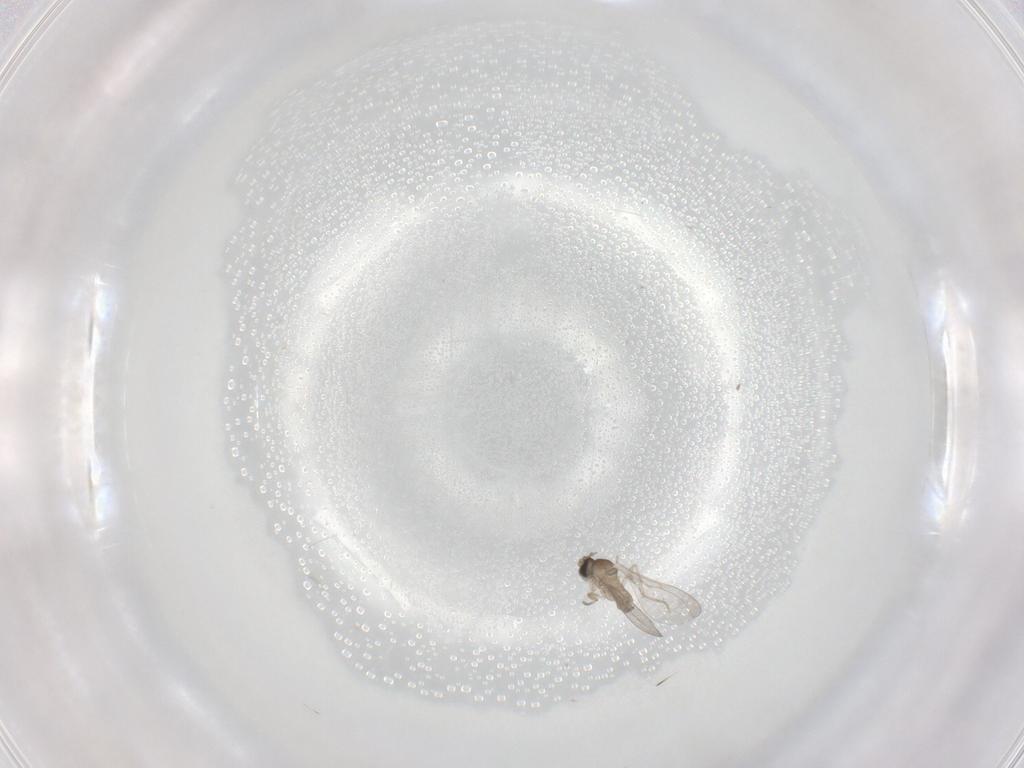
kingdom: Animalia
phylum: Arthropoda
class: Insecta
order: Diptera
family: Cecidomyiidae
